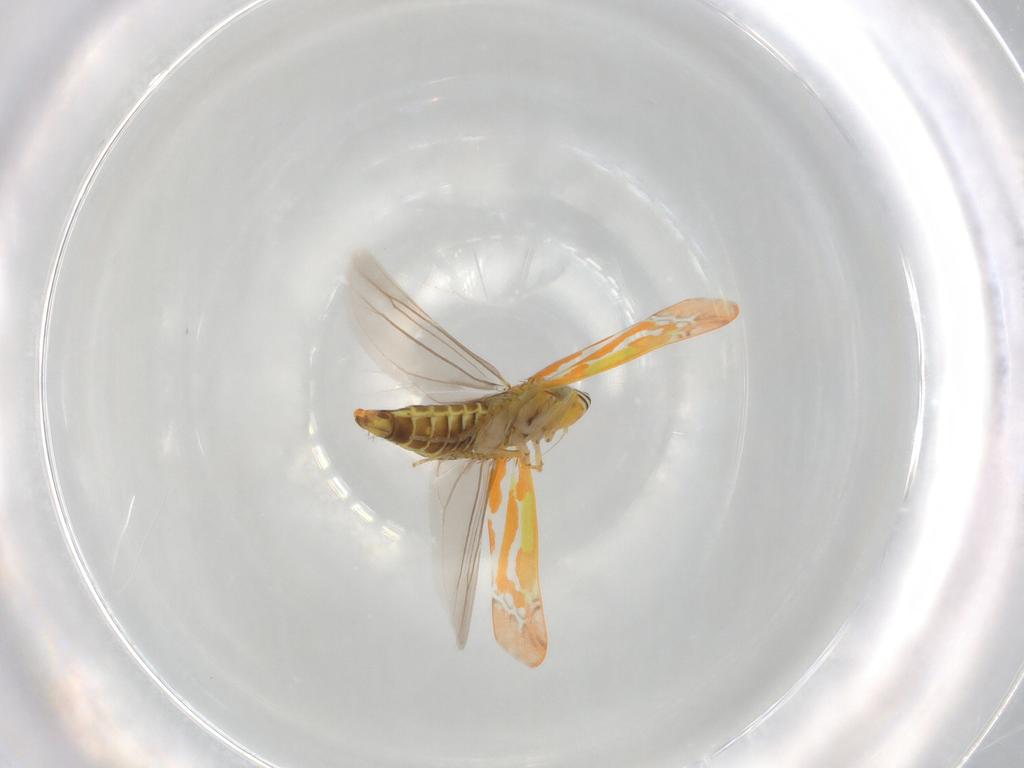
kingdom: Animalia
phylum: Arthropoda
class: Insecta
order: Hemiptera
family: Cicadellidae
